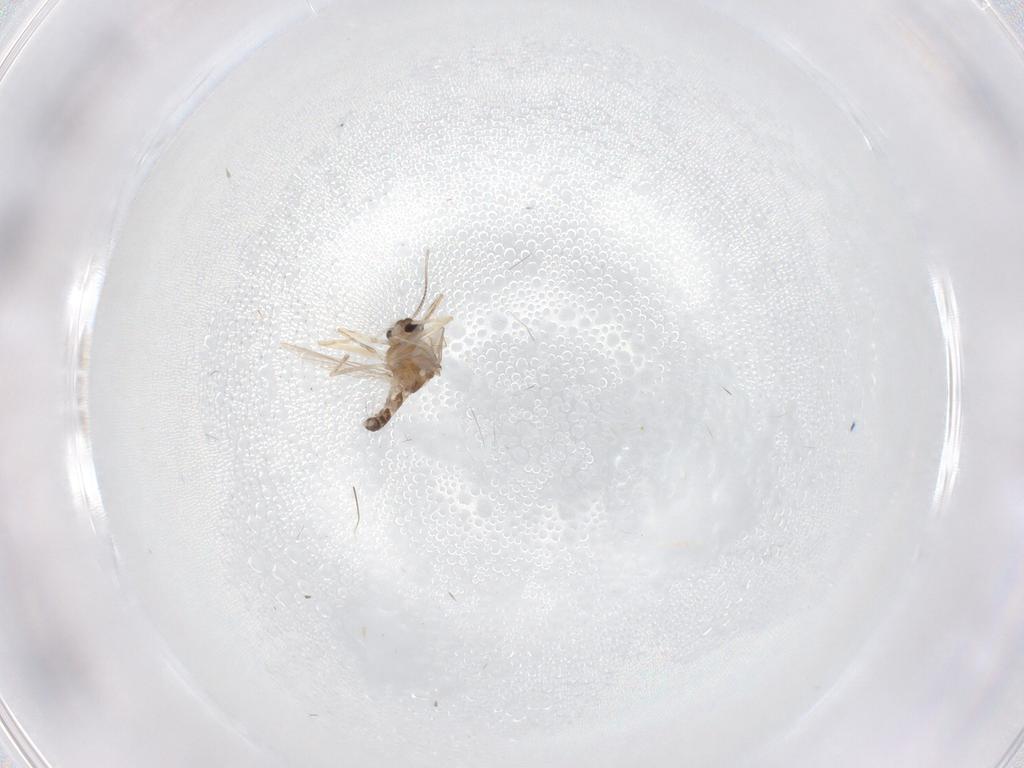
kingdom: Animalia
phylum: Arthropoda
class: Insecta
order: Diptera
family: Chironomidae
